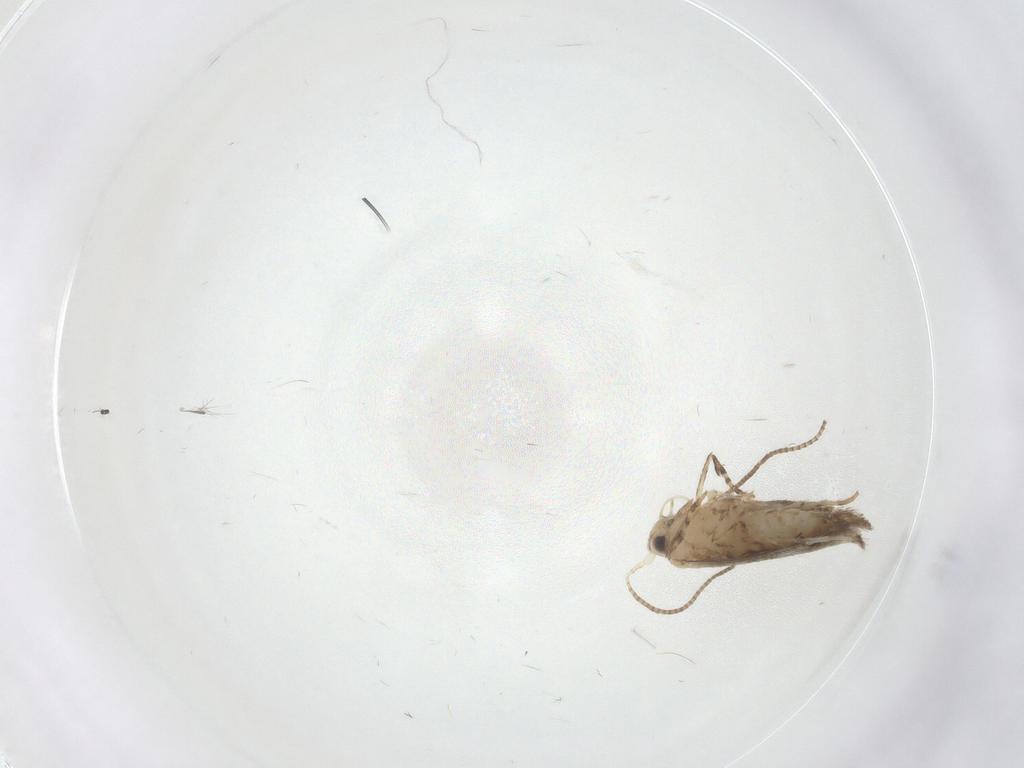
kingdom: Animalia
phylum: Arthropoda
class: Insecta
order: Lepidoptera
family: Gracillariidae
